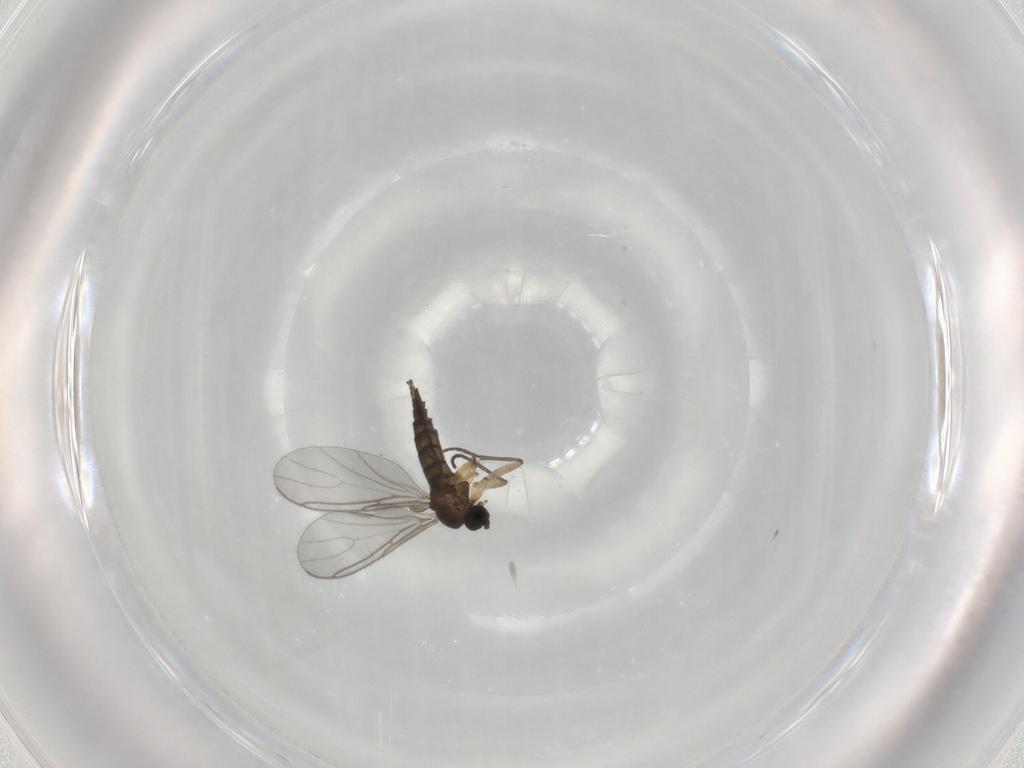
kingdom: Animalia
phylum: Arthropoda
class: Insecta
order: Diptera
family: Sciaridae
